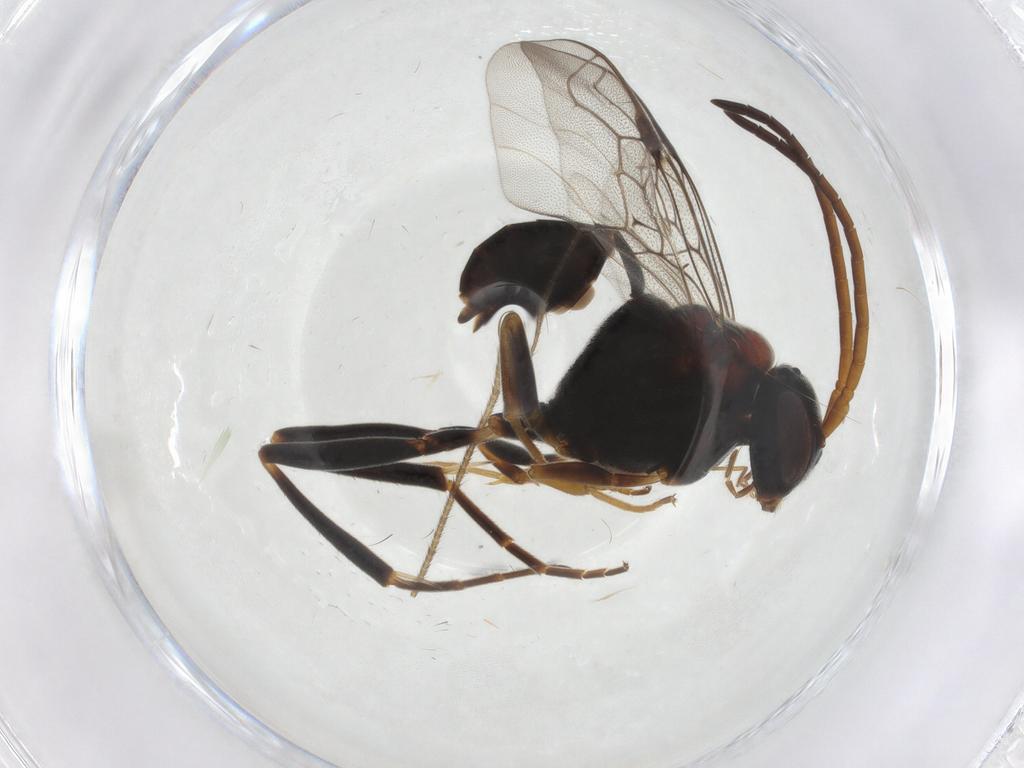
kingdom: Animalia
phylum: Arthropoda
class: Insecta
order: Hymenoptera
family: Evaniidae
